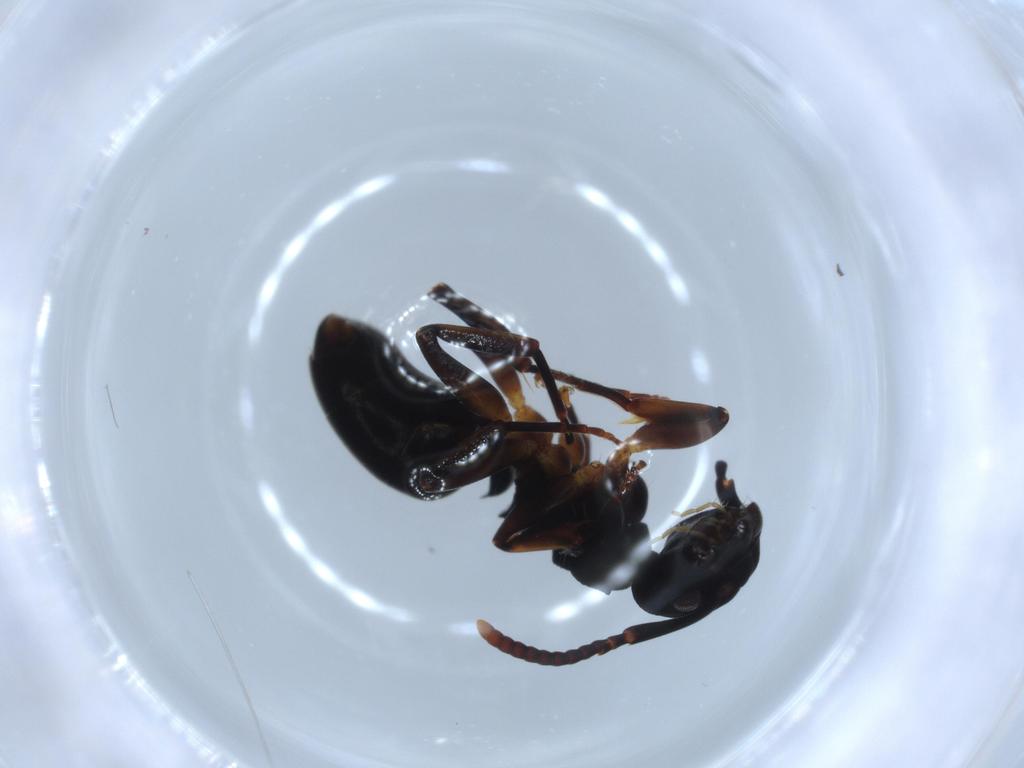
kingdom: Animalia
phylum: Arthropoda
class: Insecta
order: Hymenoptera
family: Formicidae
